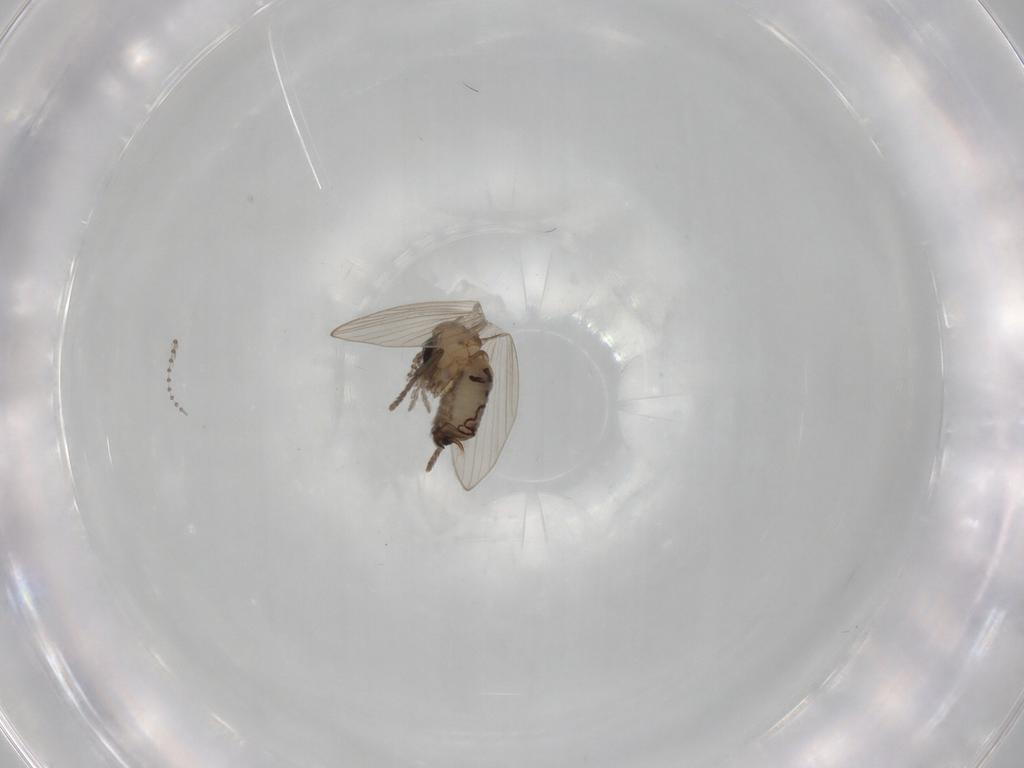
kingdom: Animalia
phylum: Arthropoda
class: Insecta
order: Diptera
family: Psychodidae
